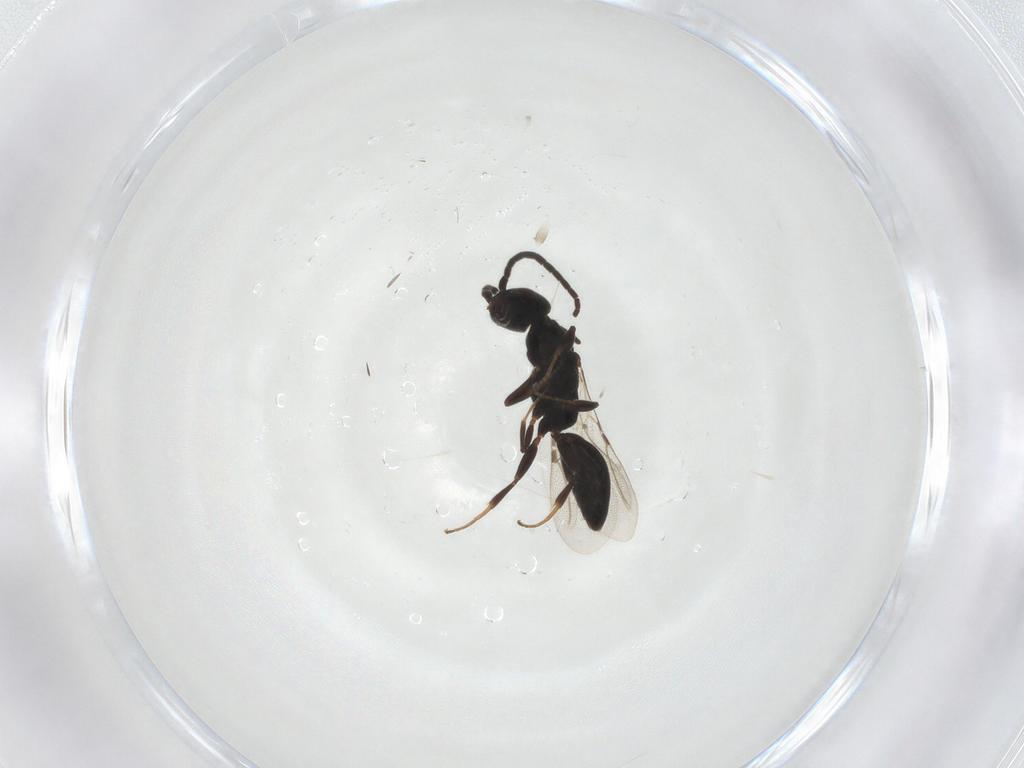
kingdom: Animalia
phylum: Arthropoda
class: Insecta
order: Hymenoptera
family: Bethylidae
